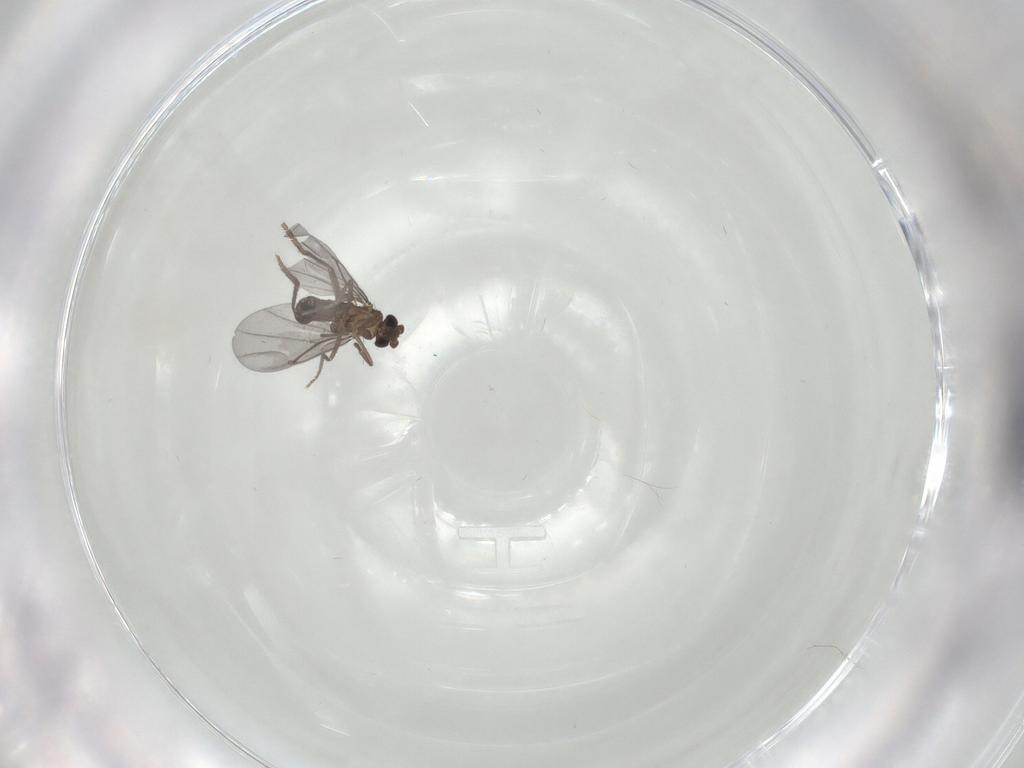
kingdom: Animalia
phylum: Arthropoda
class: Insecta
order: Diptera
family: Phoridae
